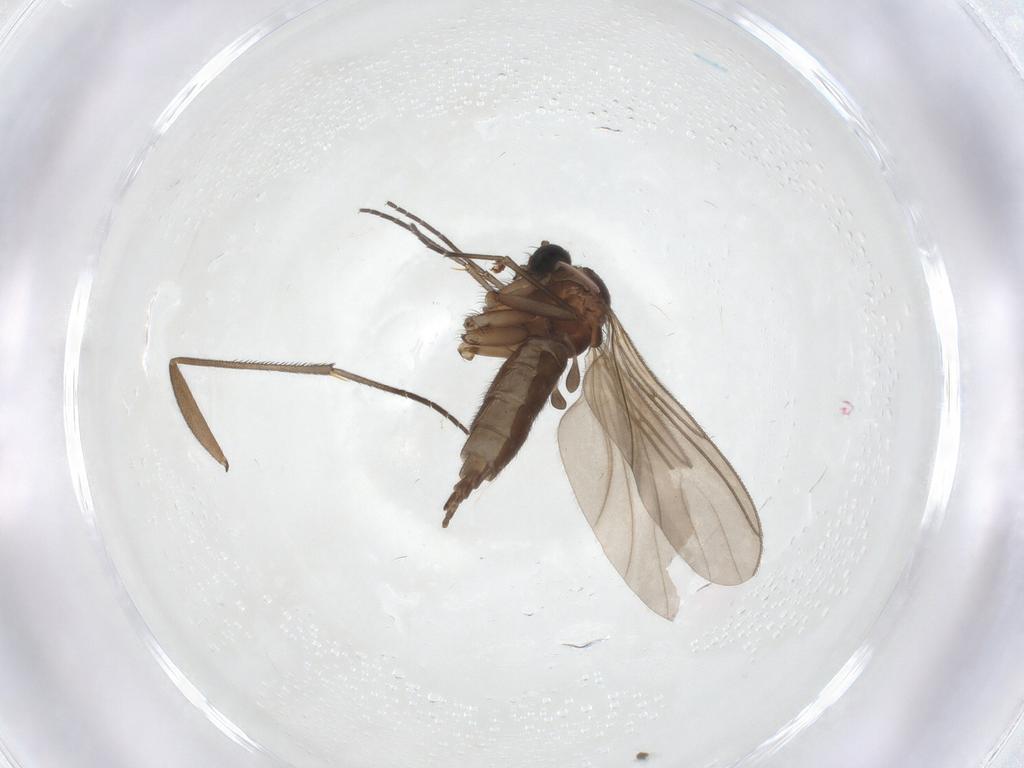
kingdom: Animalia
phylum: Arthropoda
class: Insecta
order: Diptera
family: Sciaridae
